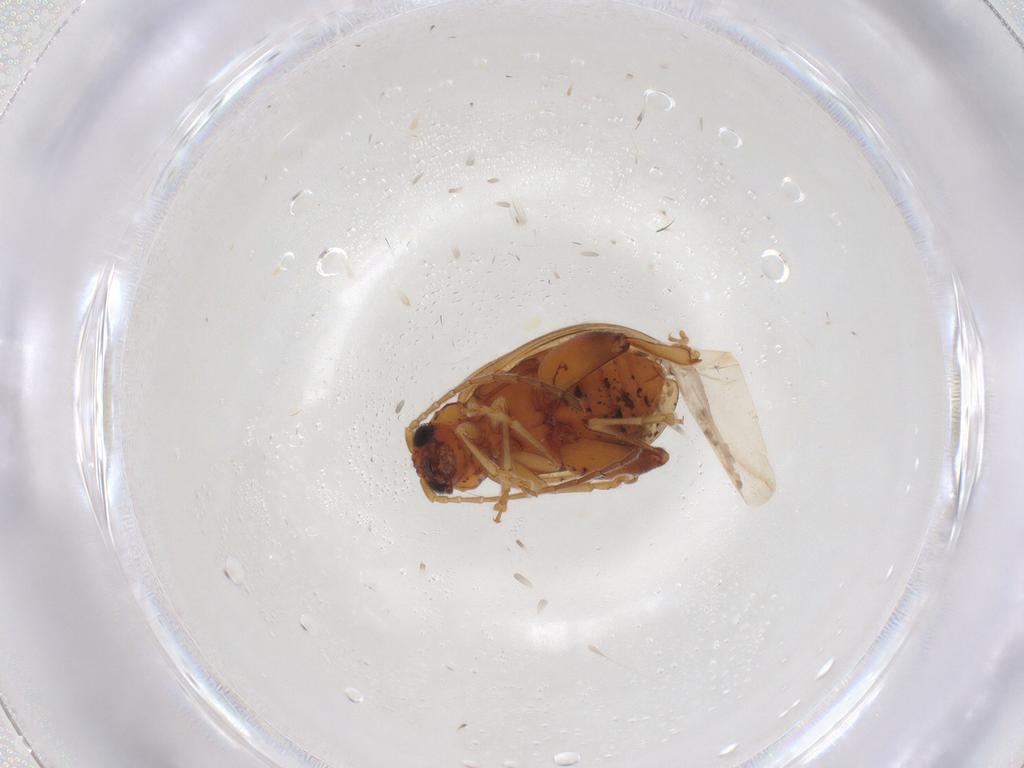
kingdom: Animalia
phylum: Arthropoda
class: Insecta
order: Coleoptera
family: Chrysomelidae
